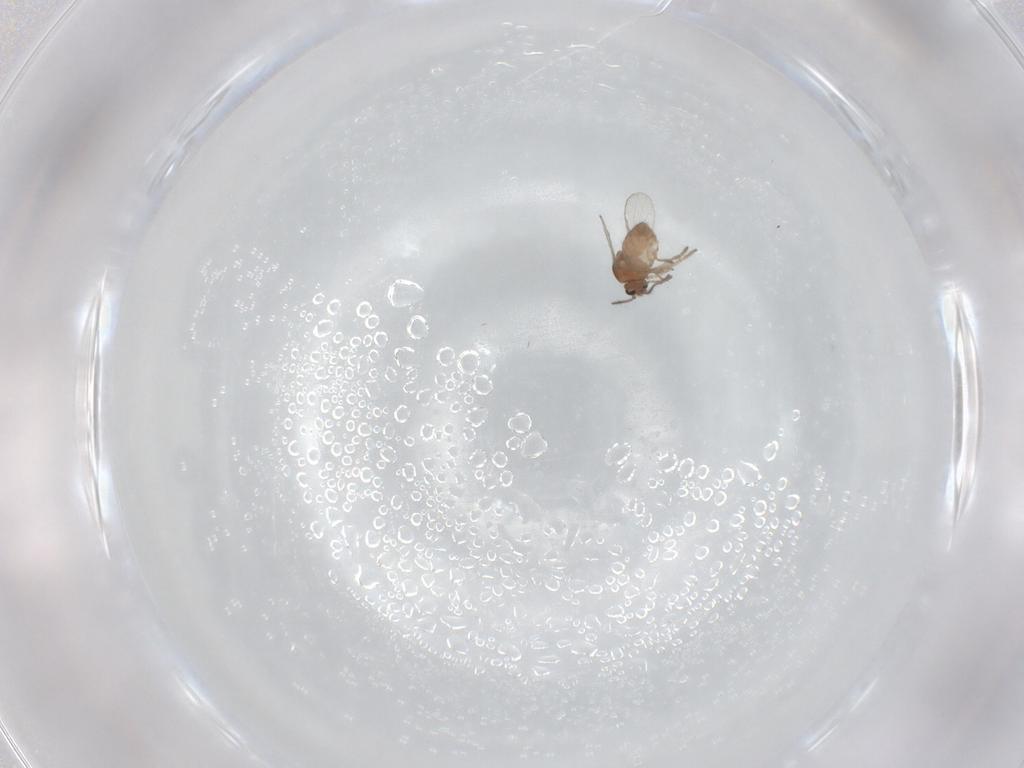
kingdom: Animalia
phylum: Arthropoda
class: Insecta
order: Diptera
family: Ceratopogonidae
